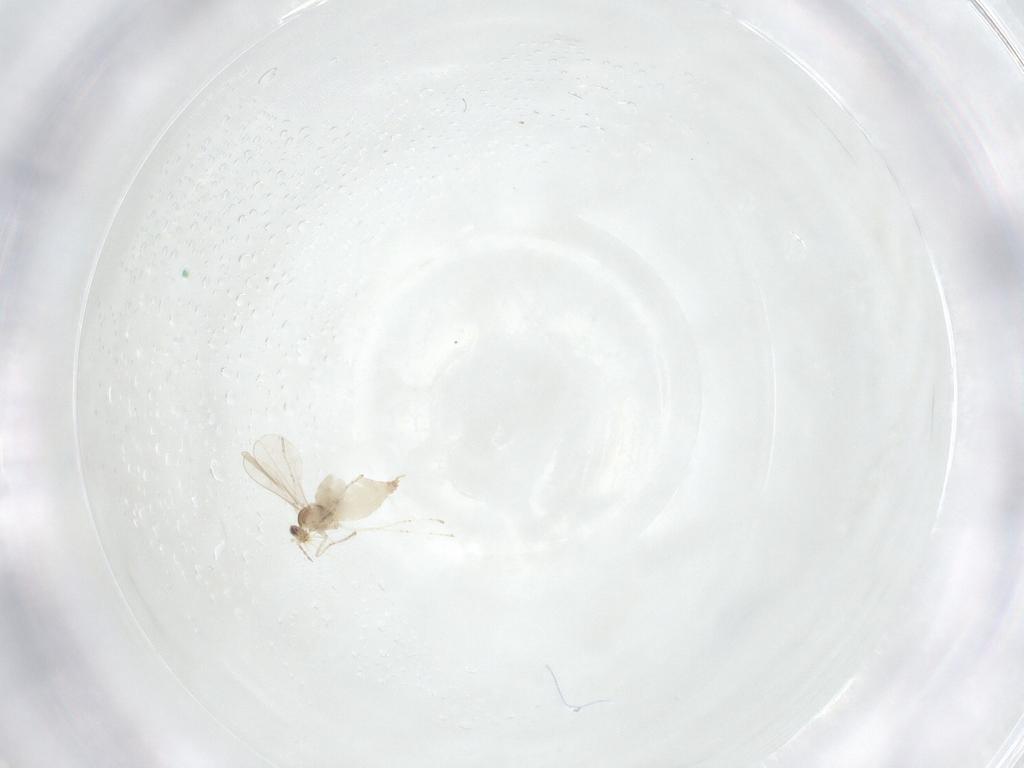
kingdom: Animalia
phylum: Arthropoda
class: Insecta
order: Diptera
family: Cecidomyiidae
